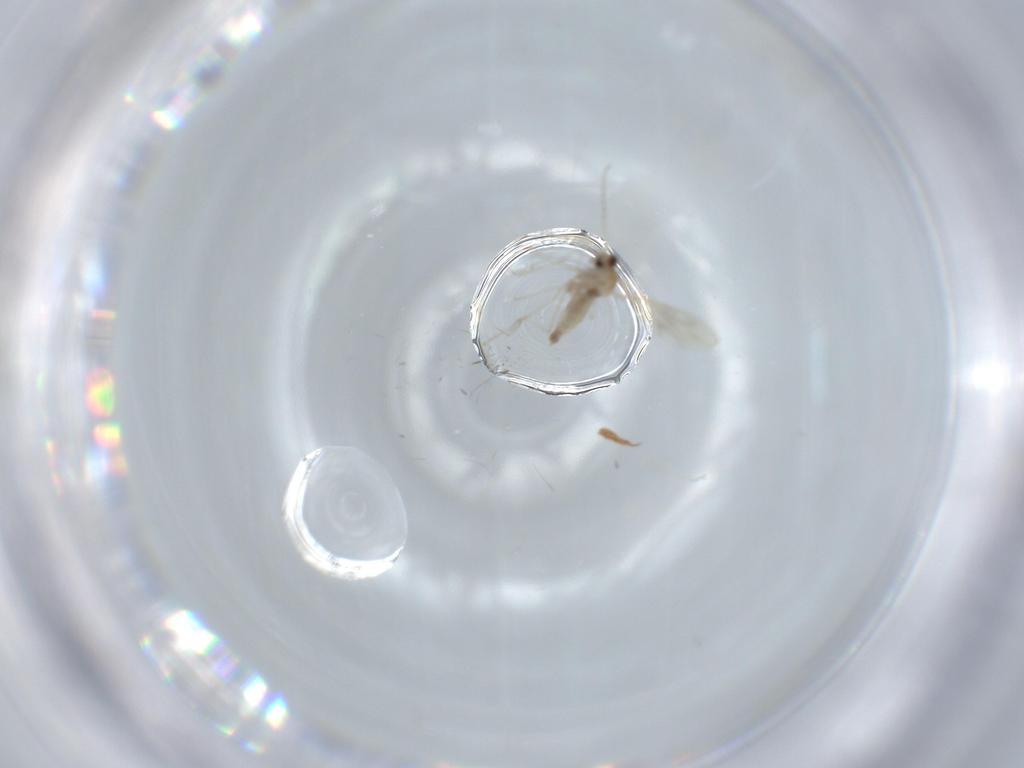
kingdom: Animalia
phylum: Arthropoda
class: Insecta
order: Diptera
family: Cecidomyiidae
